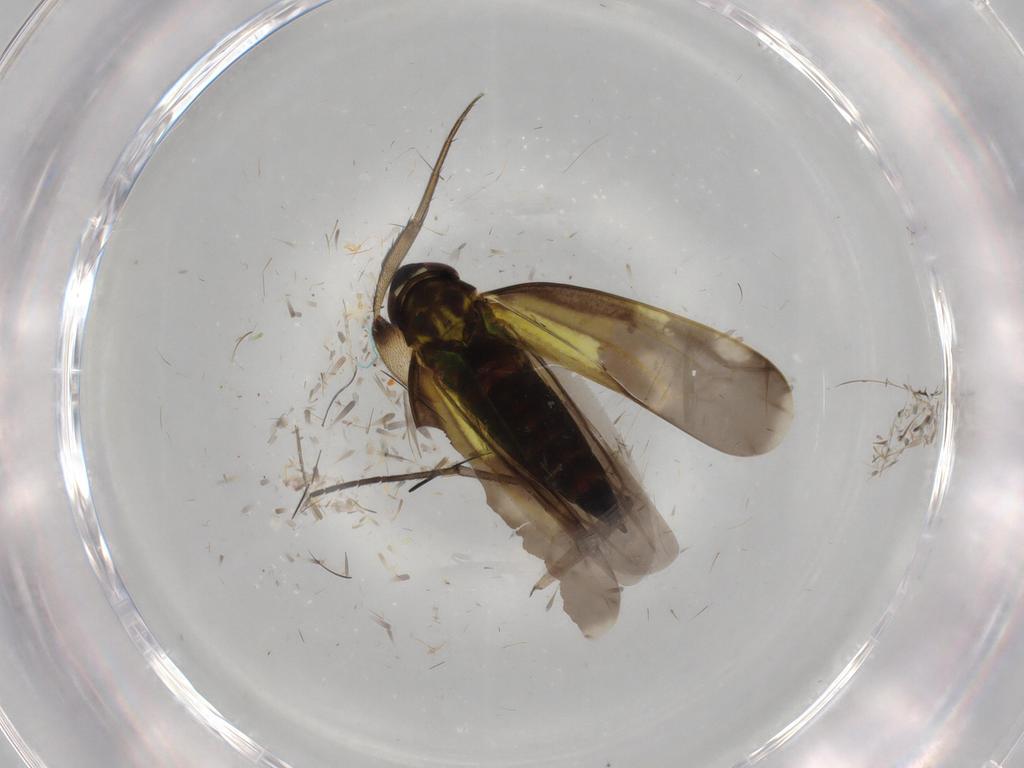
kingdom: Animalia
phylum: Arthropoda
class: Insecta
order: Hemiptera
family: Cicadellidae
